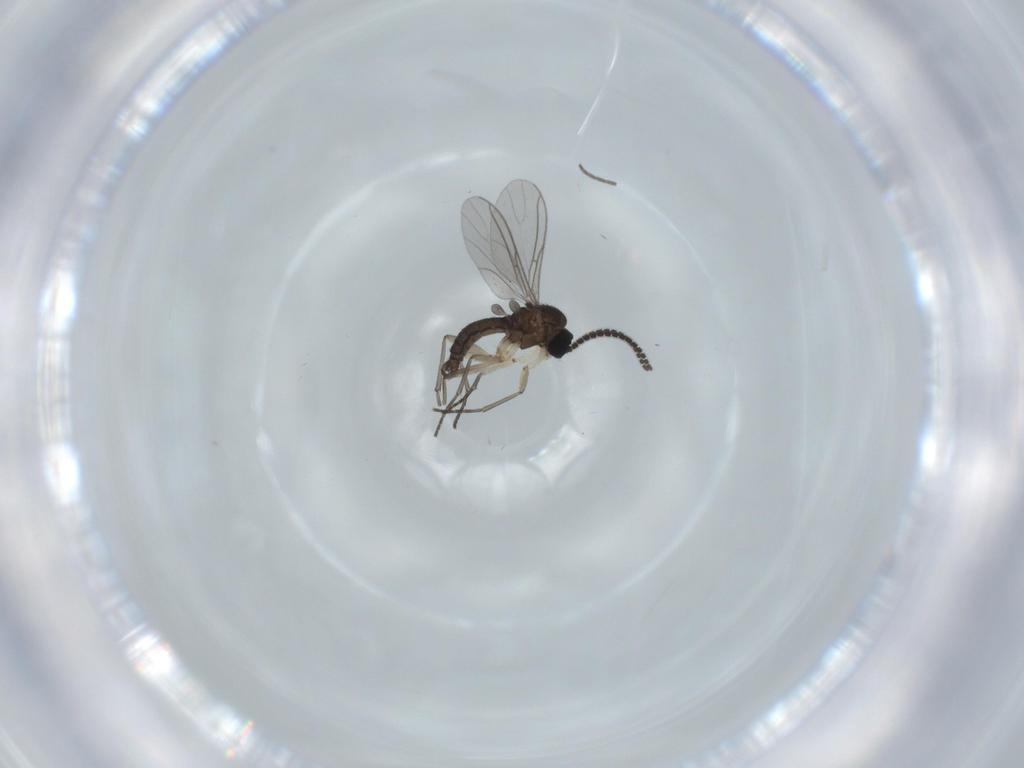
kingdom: Animalia
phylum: Arthropoda
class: Insecta
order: Diptera
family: Sciaridae
